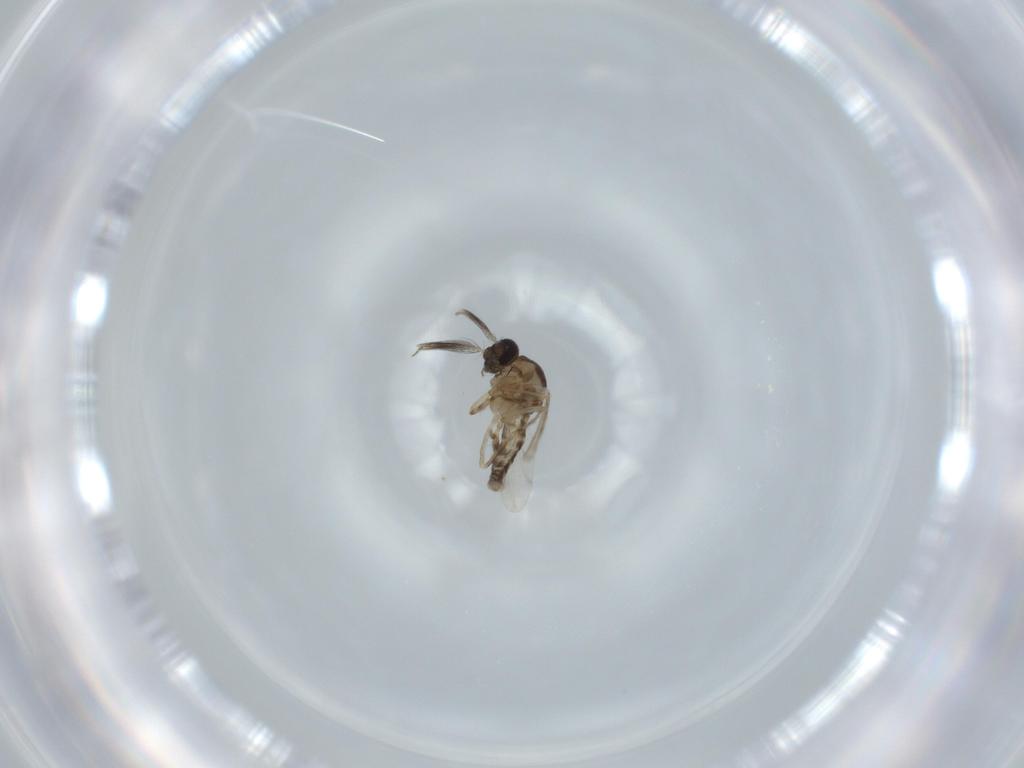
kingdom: Animalia
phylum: Arthropoda
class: Insecta
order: Diptera
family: Ceratopogonidae
